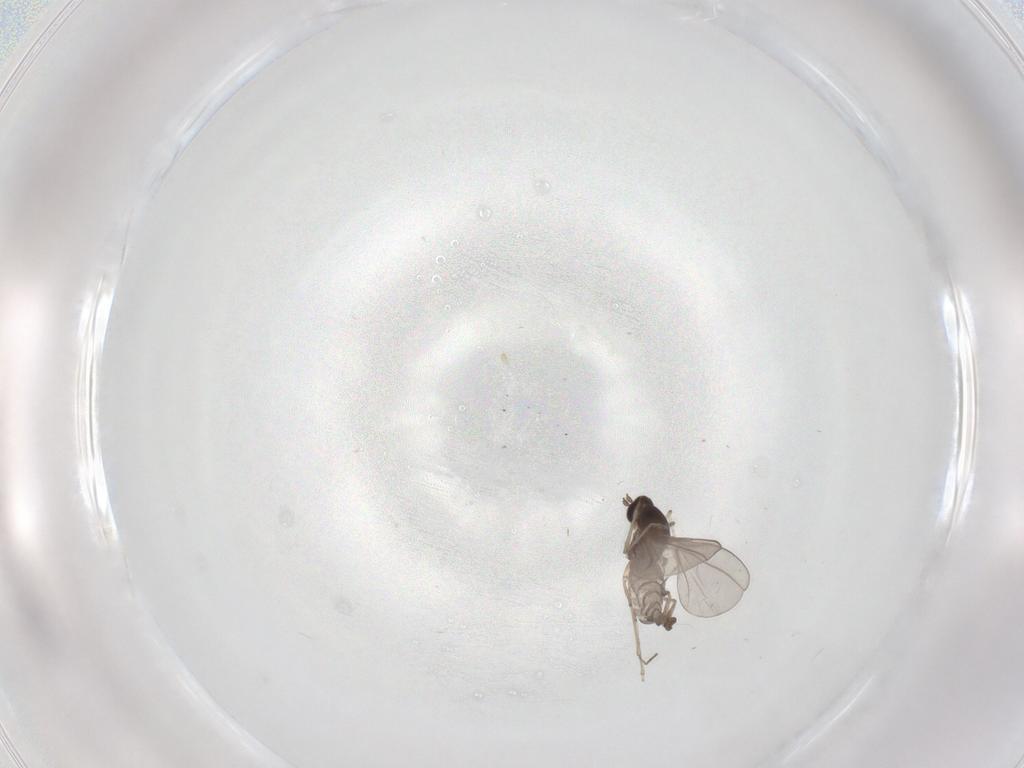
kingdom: Animalia
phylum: Arthropoda
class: Insecta
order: Diptera
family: Cecidomyiidae
